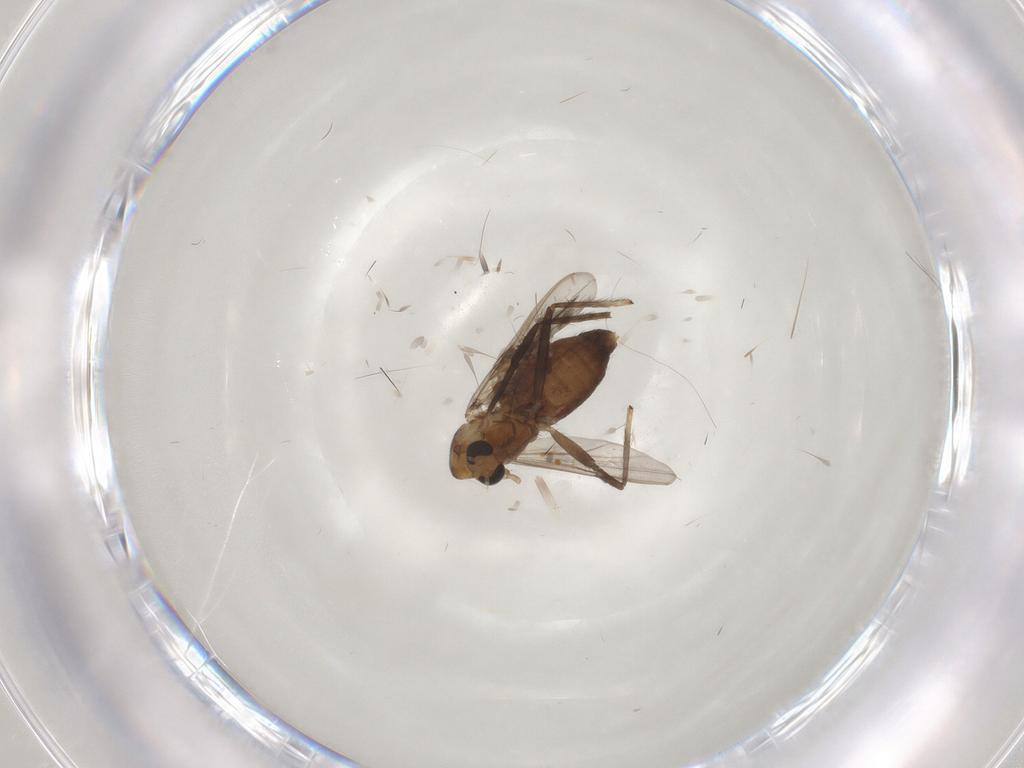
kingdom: Animalia
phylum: Arthropoda
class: Insecta
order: Diptera
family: Chironomidae
